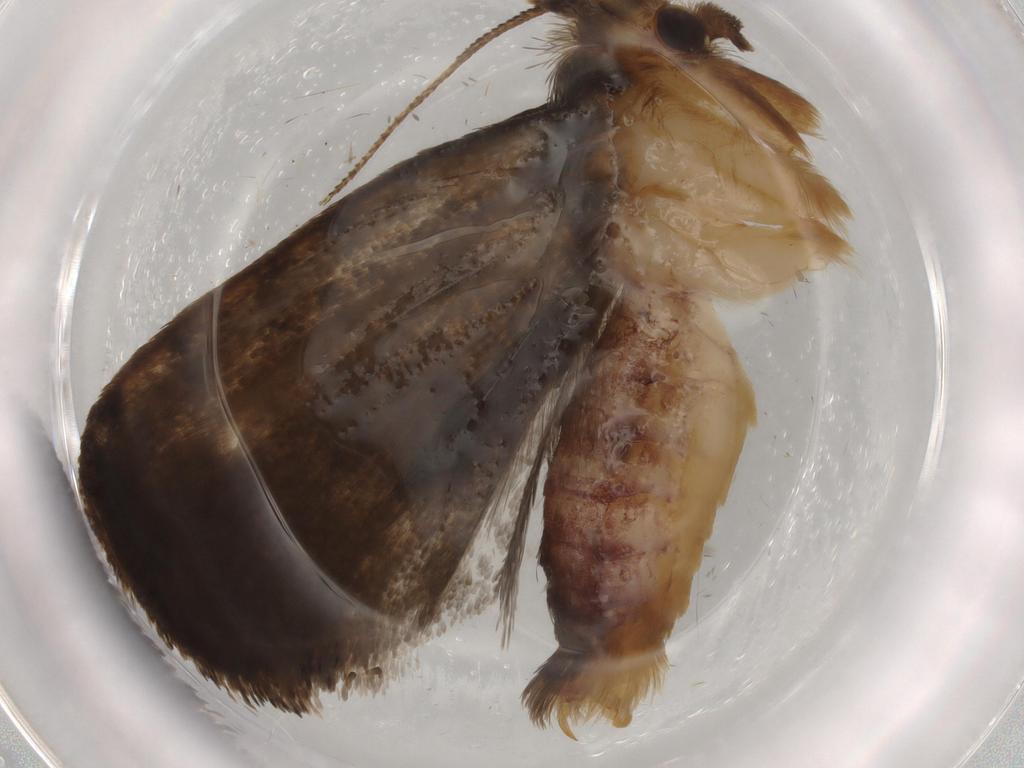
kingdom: Animalia
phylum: Arthropoda
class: Insecta
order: Lepidoptera
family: Tineidae
